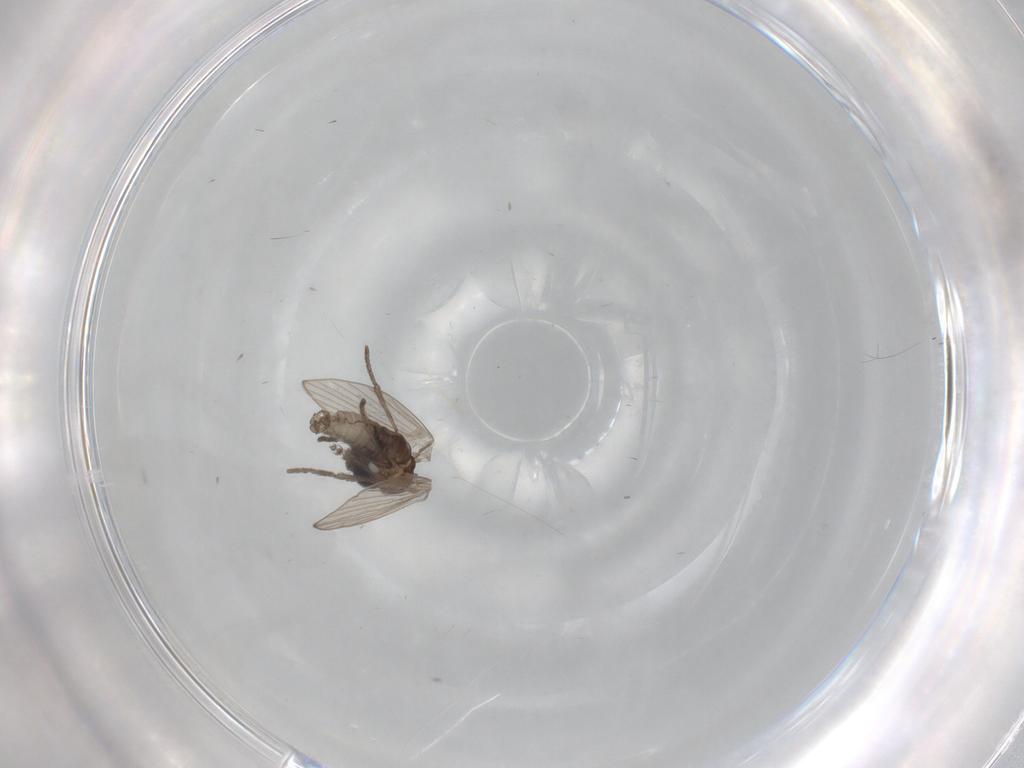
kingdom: Animalia
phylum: Arthropoda
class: Insecta
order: Diptera
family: Psychodidae
